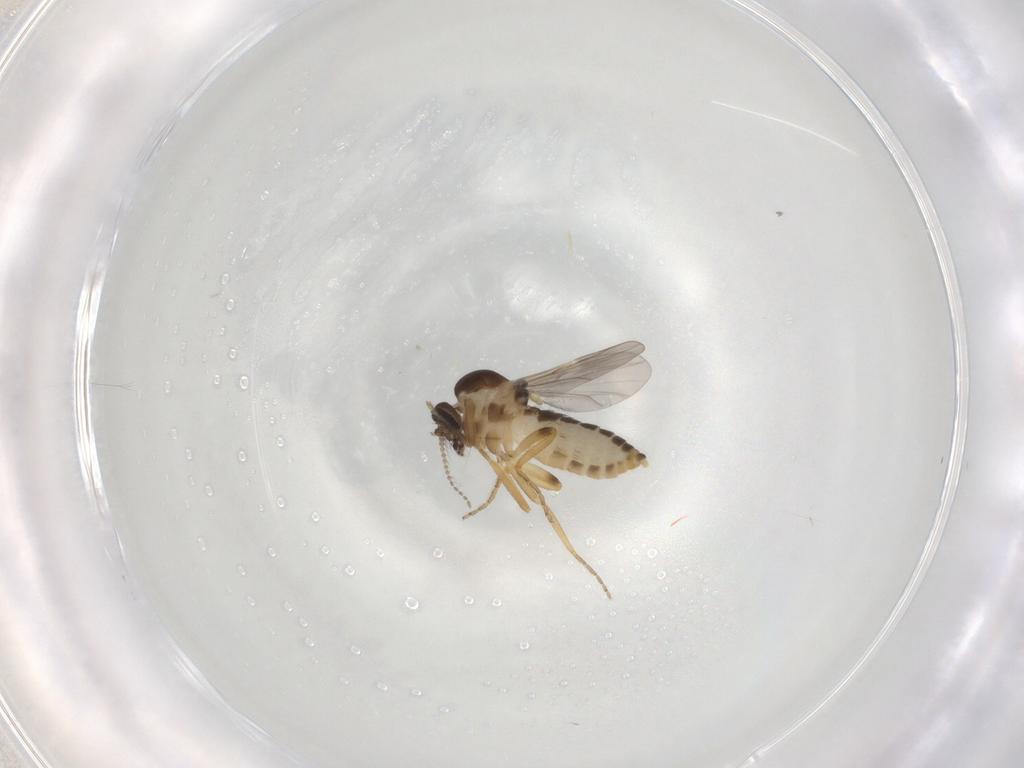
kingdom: Animalia
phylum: Arthropoda
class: Insecta
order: Diptera
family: Ceratopogonidae
